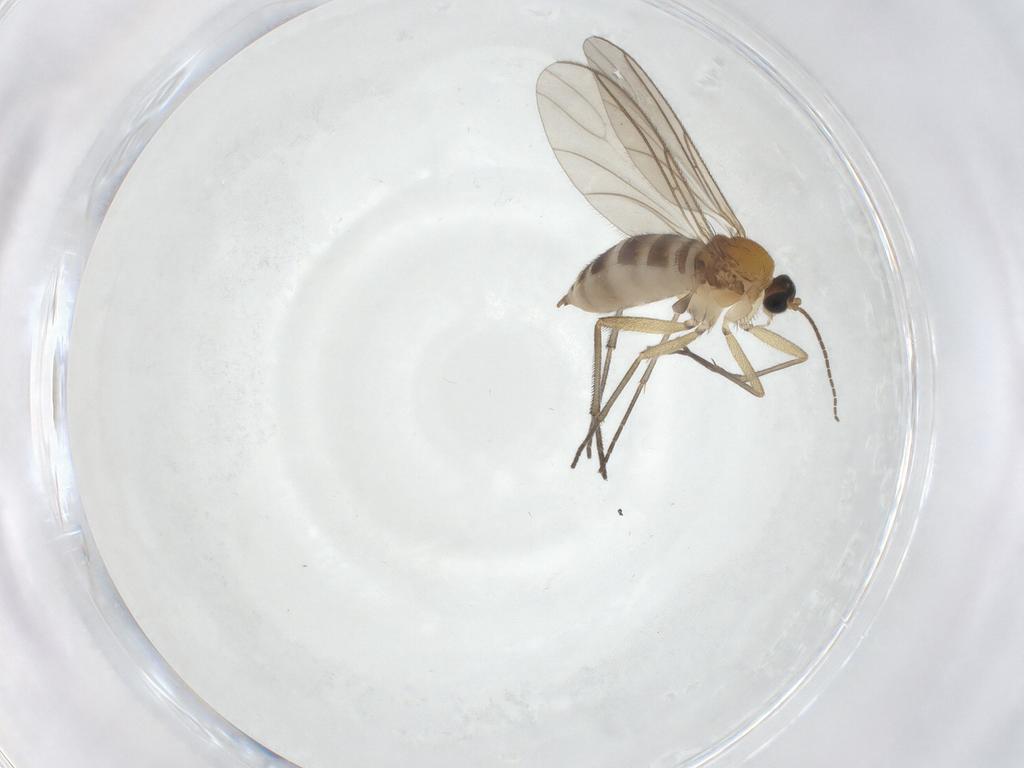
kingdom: Animalia
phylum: Arthropoda
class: Insecta
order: Diptera
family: Sciaridae
